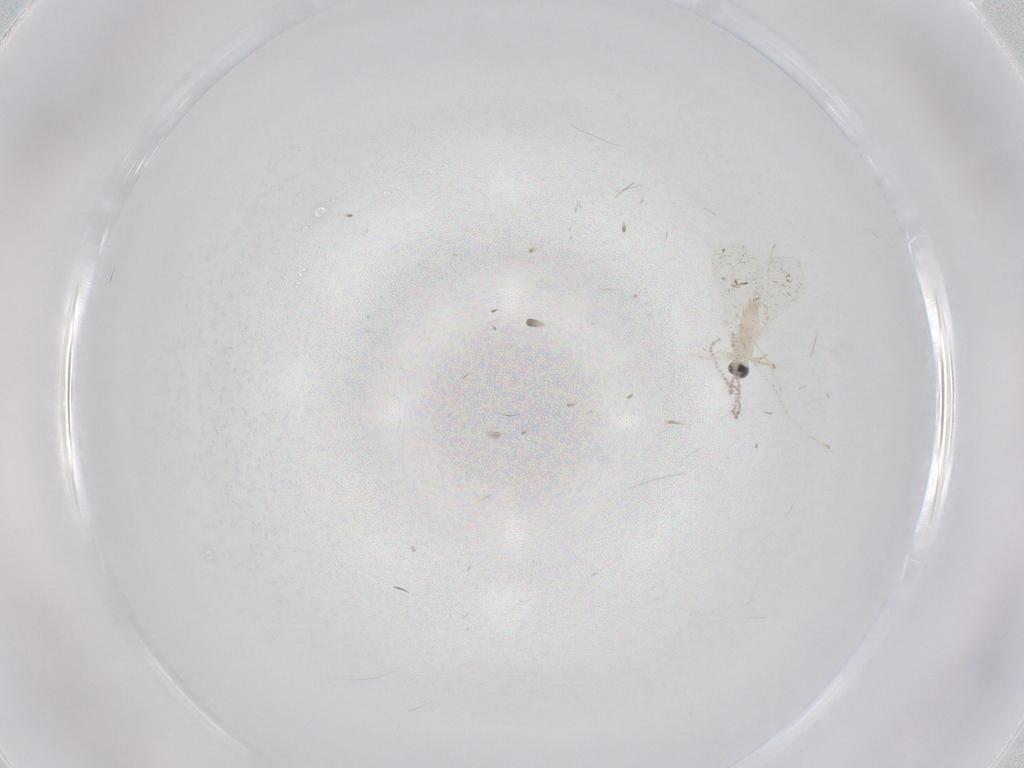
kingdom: Animalia
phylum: Arthropoda
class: Insecta
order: Diptera
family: Cecidomyiidae
